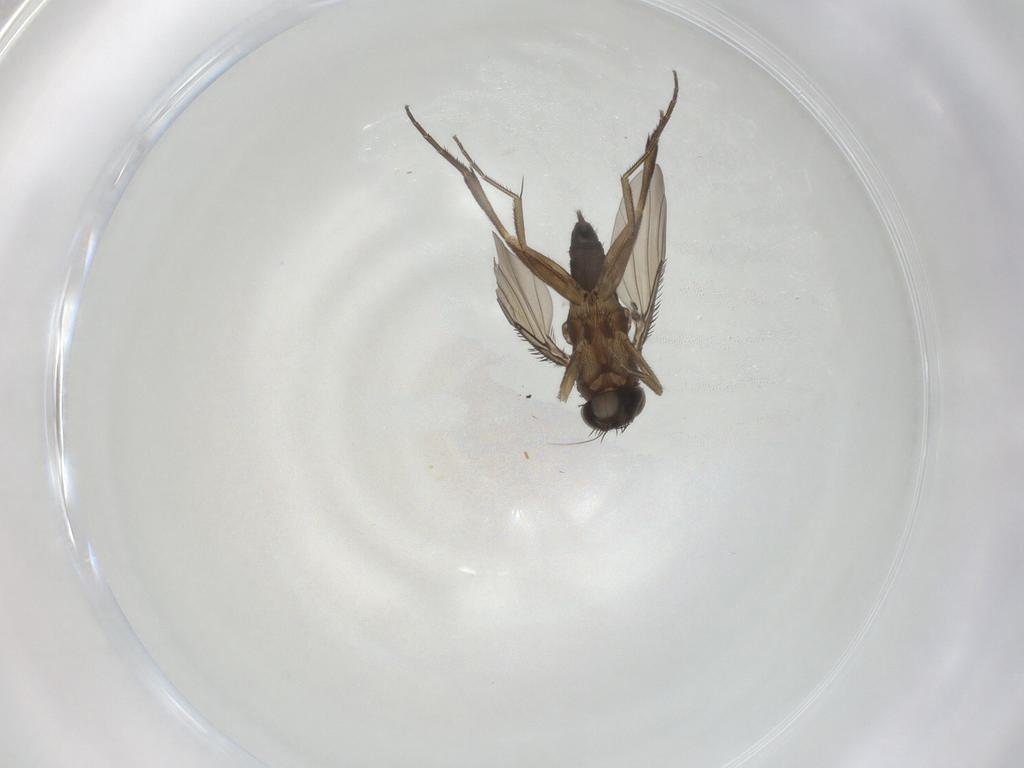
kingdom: Animalia
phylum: Arthropoda
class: Insecta
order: Diptera
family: Phoridae
